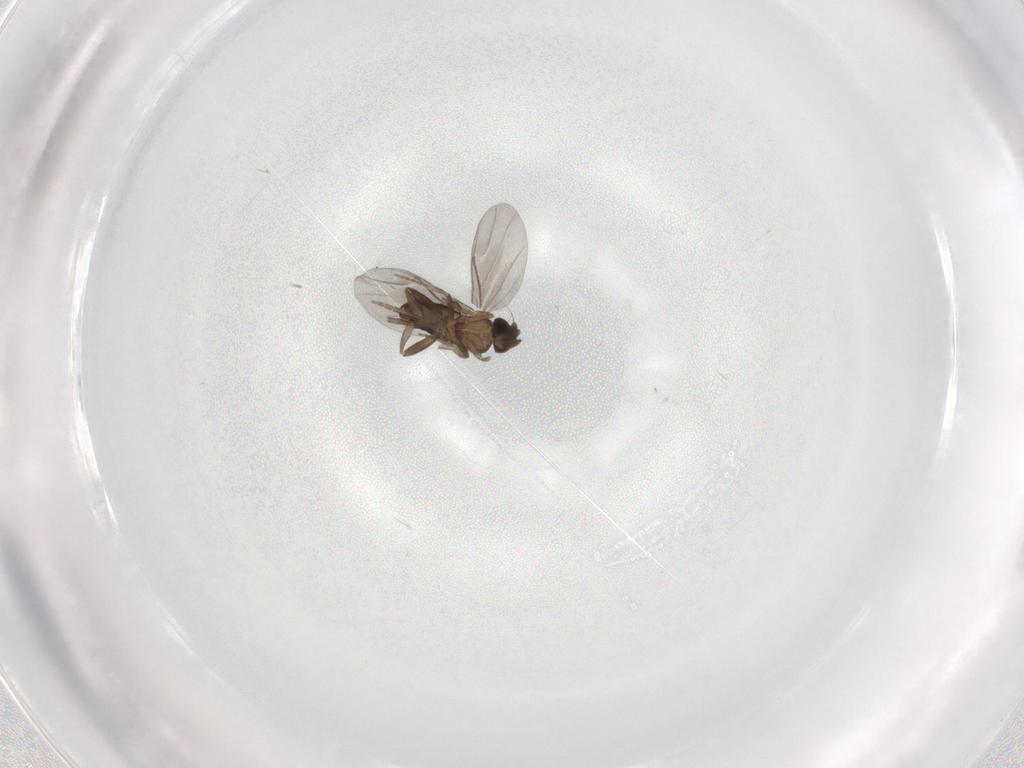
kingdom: Animalia
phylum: Arthropoda
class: Insecta
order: Diptera
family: Phoridae
